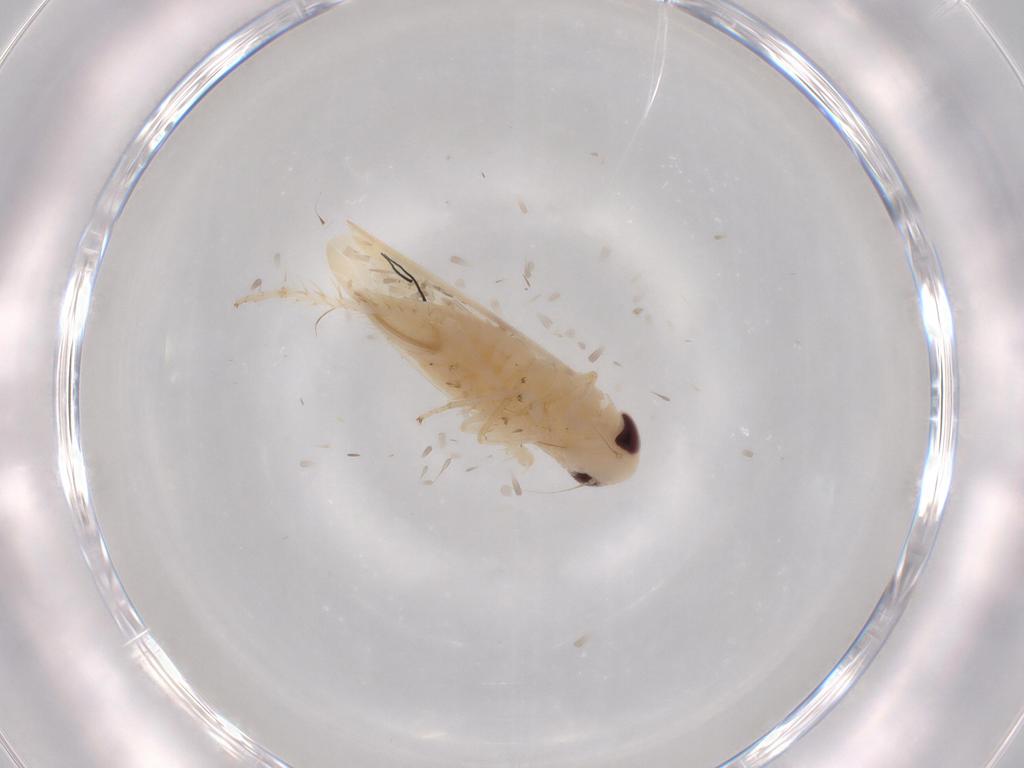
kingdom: Animalia
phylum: Arthropoda
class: Insecta
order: Hemiptera
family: Cicadellidae
